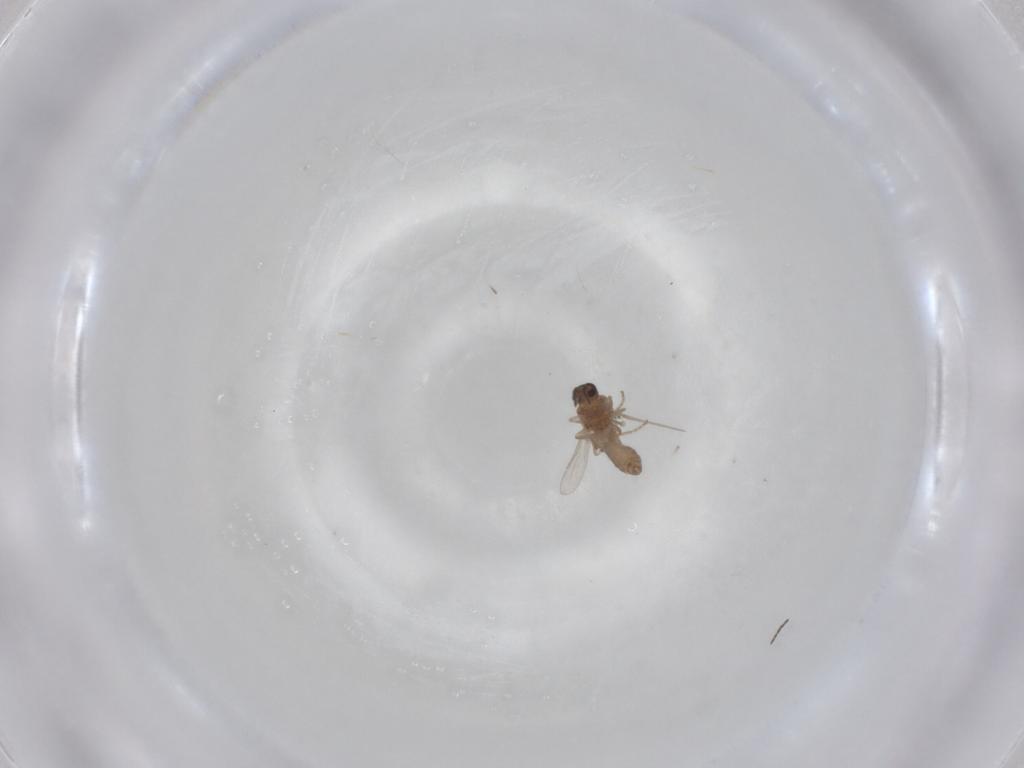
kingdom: Animalia
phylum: Arthropoda
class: Insecta
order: Diptera
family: Ceratopogonidae
